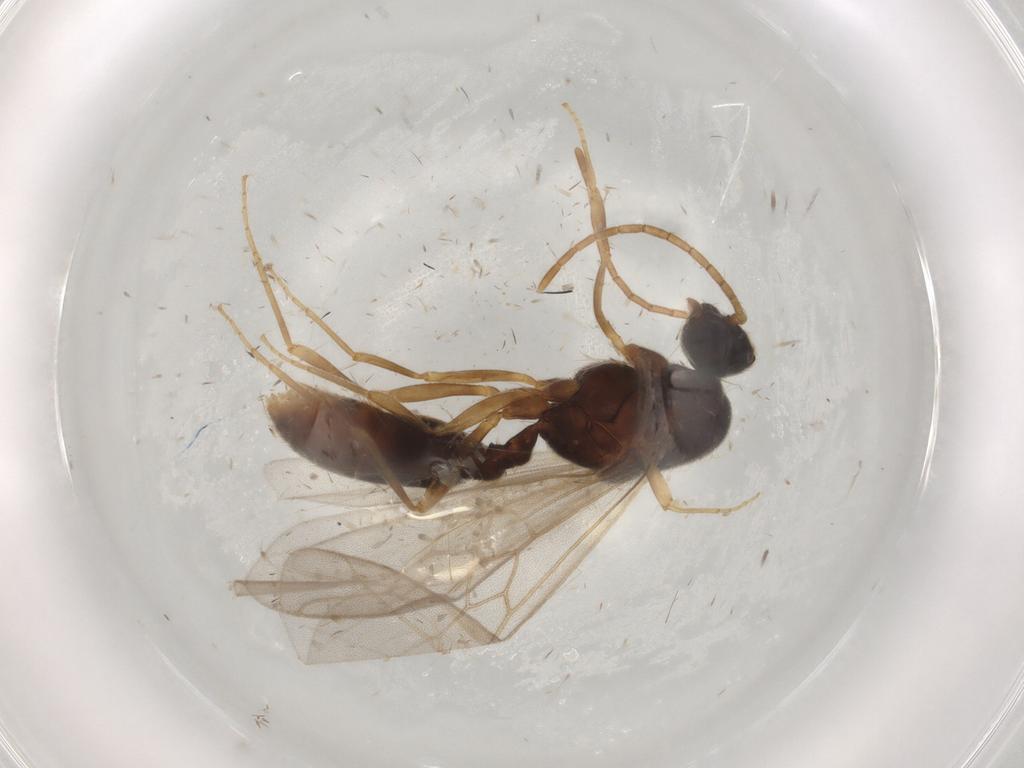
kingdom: Animalia
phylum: Arthropoda
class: Insecta
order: Hymenoptera
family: Formicidae
